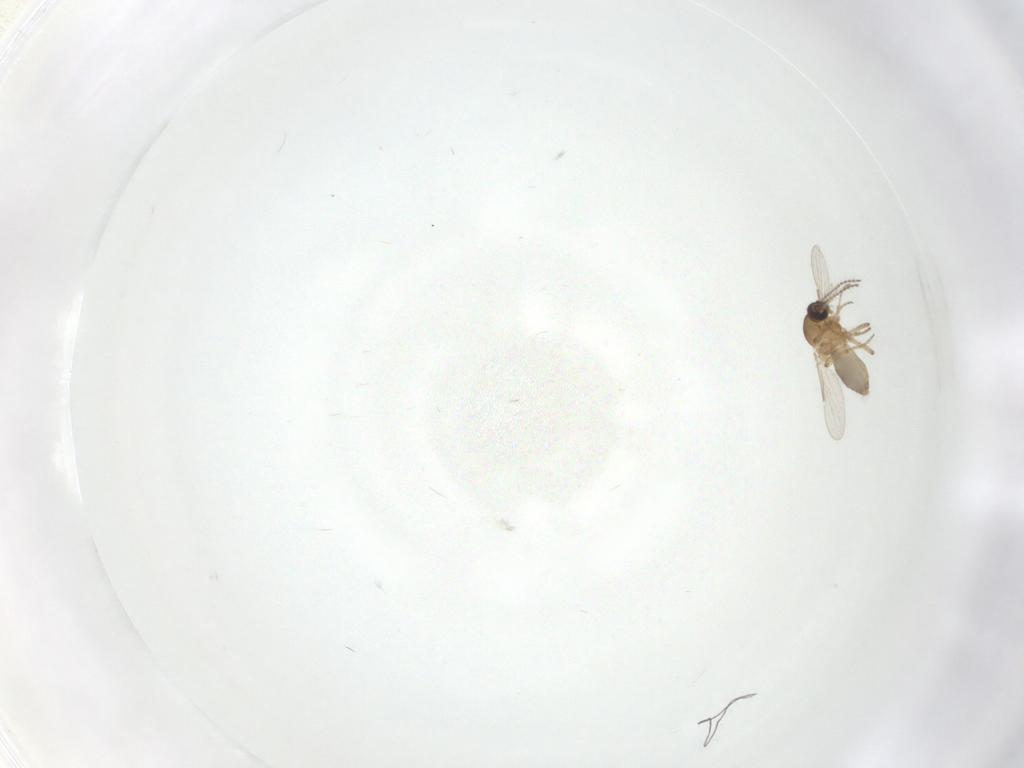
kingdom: Animalia
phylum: Arthropoda
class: Insecta
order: Diptera
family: Ceratopogonidae
